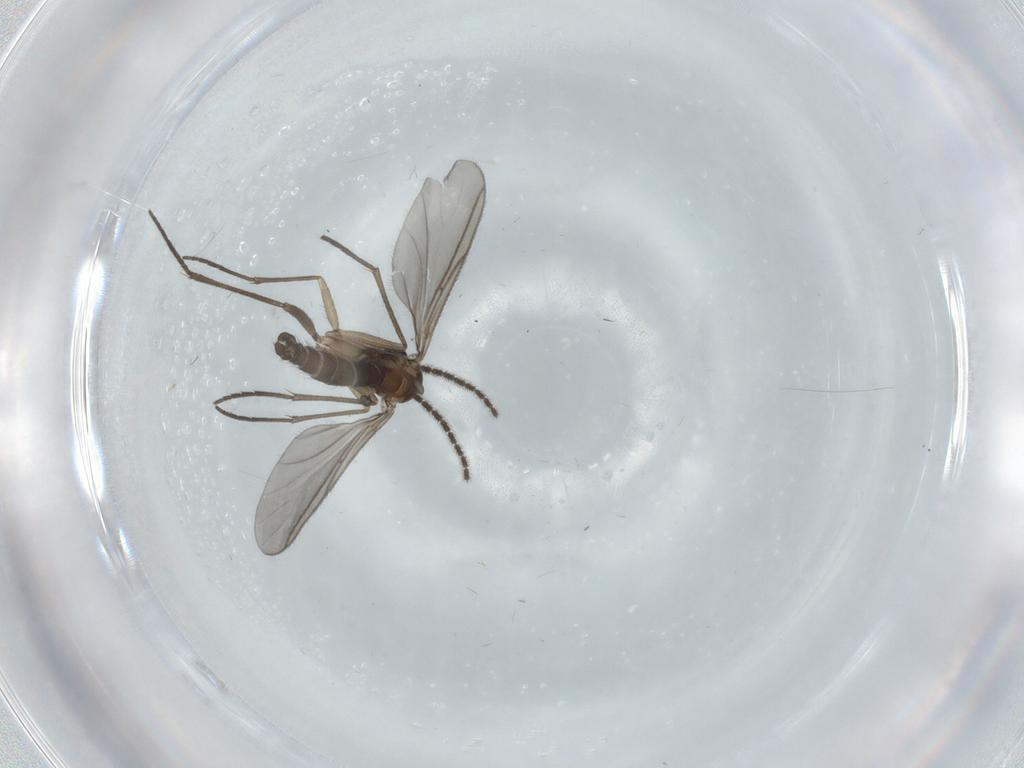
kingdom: Animalia
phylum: Arthropoda
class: Insecta
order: Diptera
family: Sciaridae
